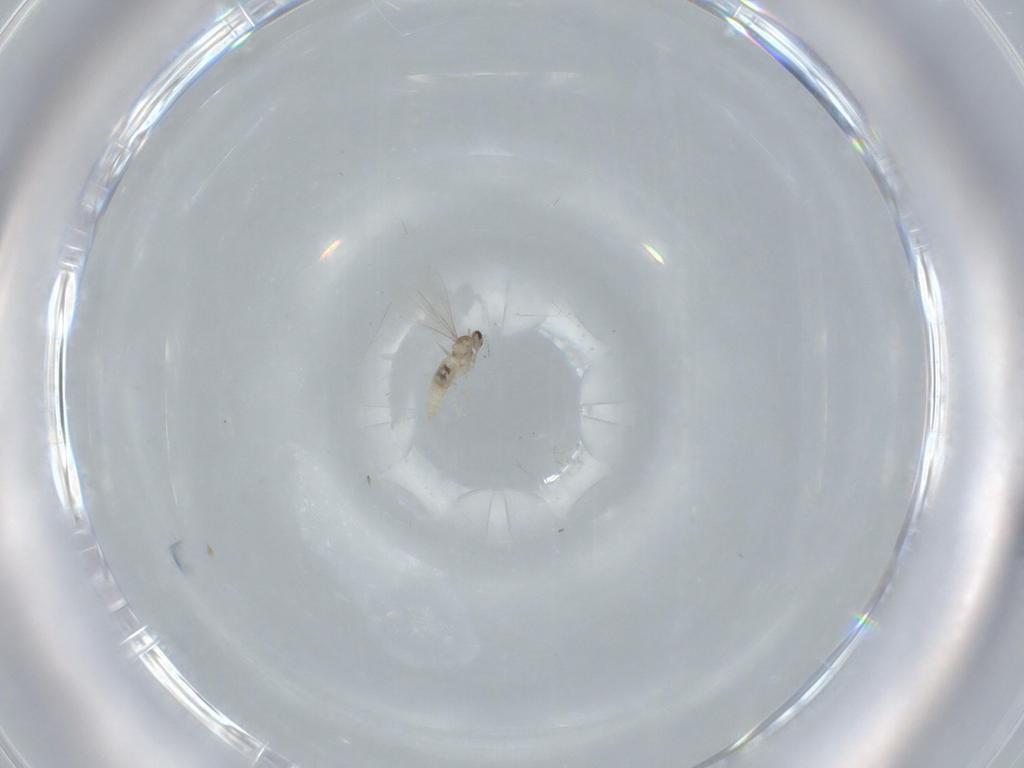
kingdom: Animalia
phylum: Arthropoda
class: Insecta
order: Diptera
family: Cecidomyiidae
